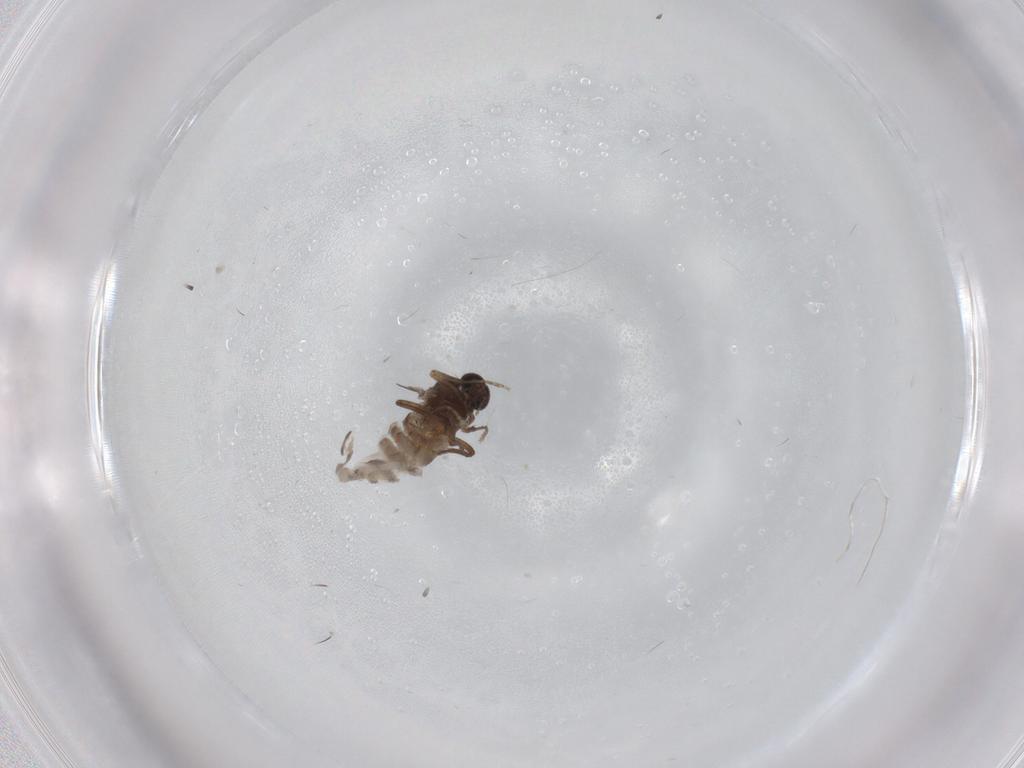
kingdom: Animalia
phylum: Arthropoda
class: Insecta
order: Diptera
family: Ceratopogonidae
